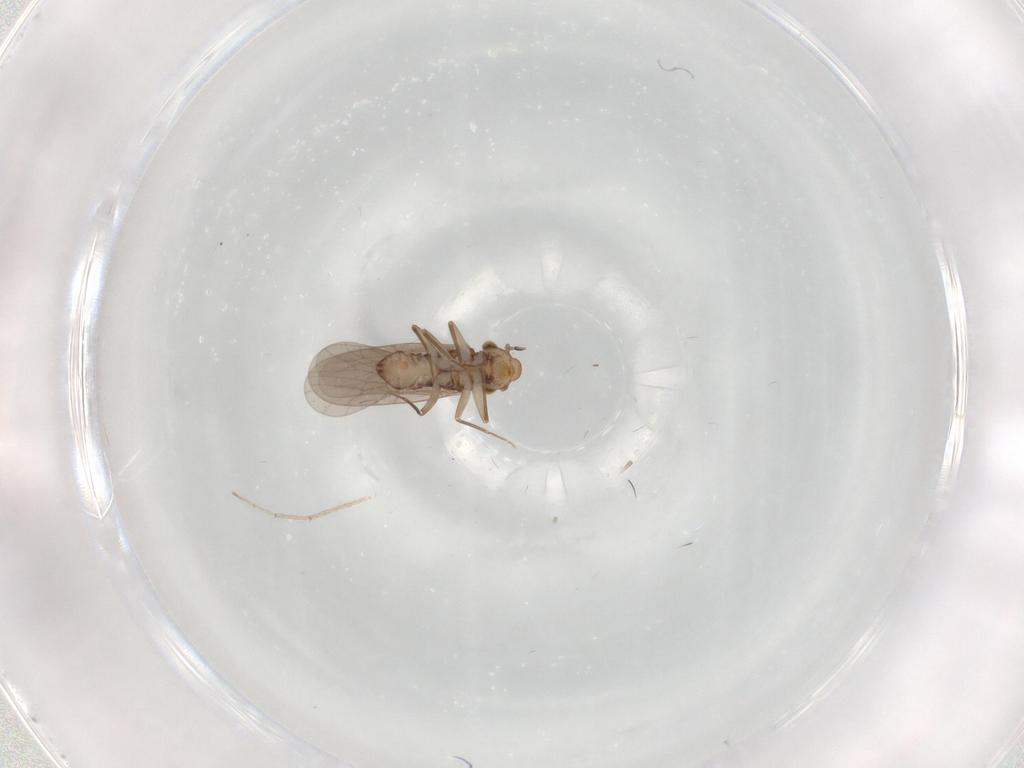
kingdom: Animalia
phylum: Arthropoda
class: Insecta
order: Psocodea
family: Lepidopsocidae
